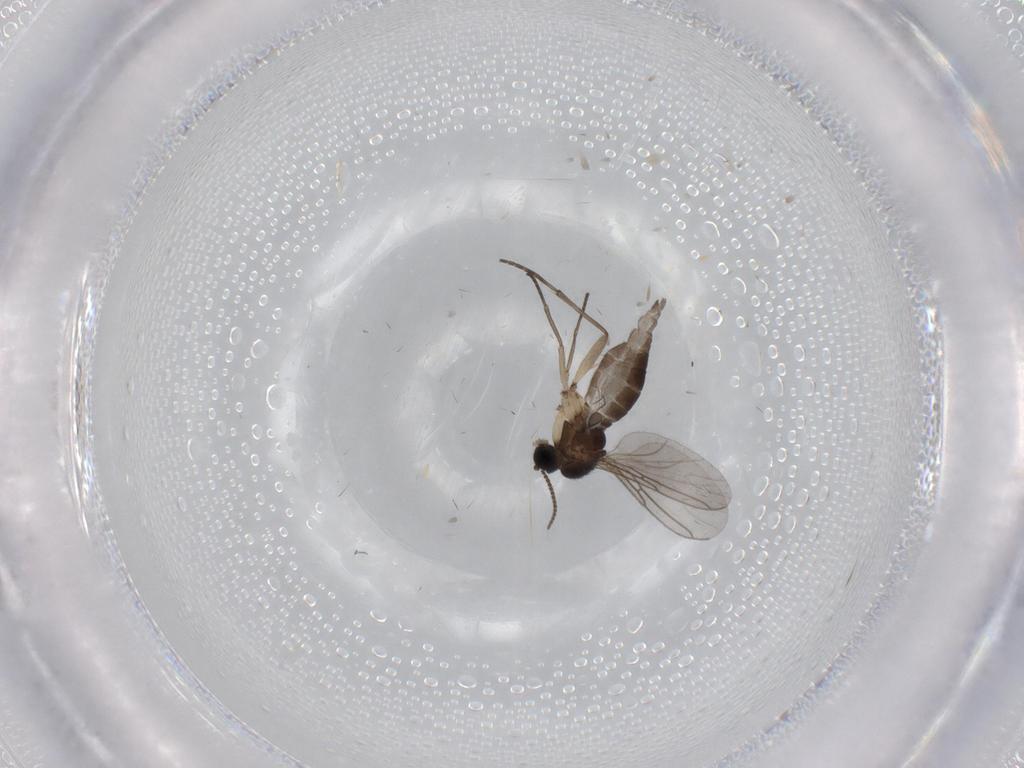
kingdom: Animalia
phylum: Arthropoda
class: Insecta
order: Diptera
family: Sciaridae
